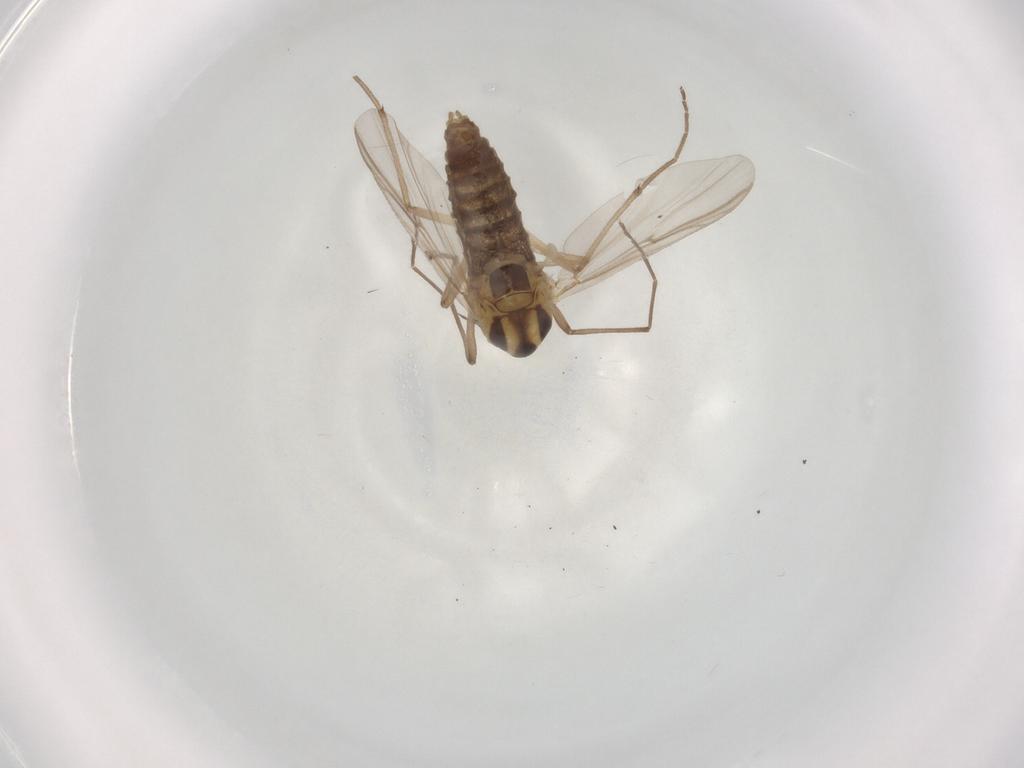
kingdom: Animalia
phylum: Arthropoda
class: Insecta
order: Diptera
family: Chironomidae
